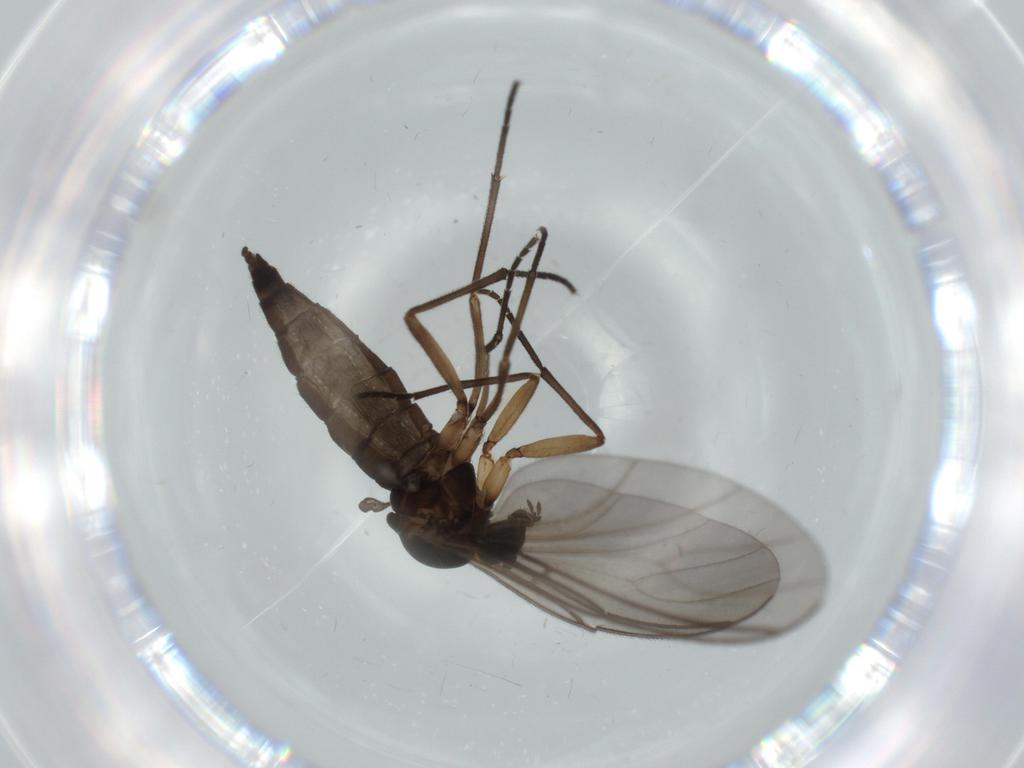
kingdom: Animalia
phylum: Arthropoda
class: Insecta
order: Diptera
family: Sciaridae
